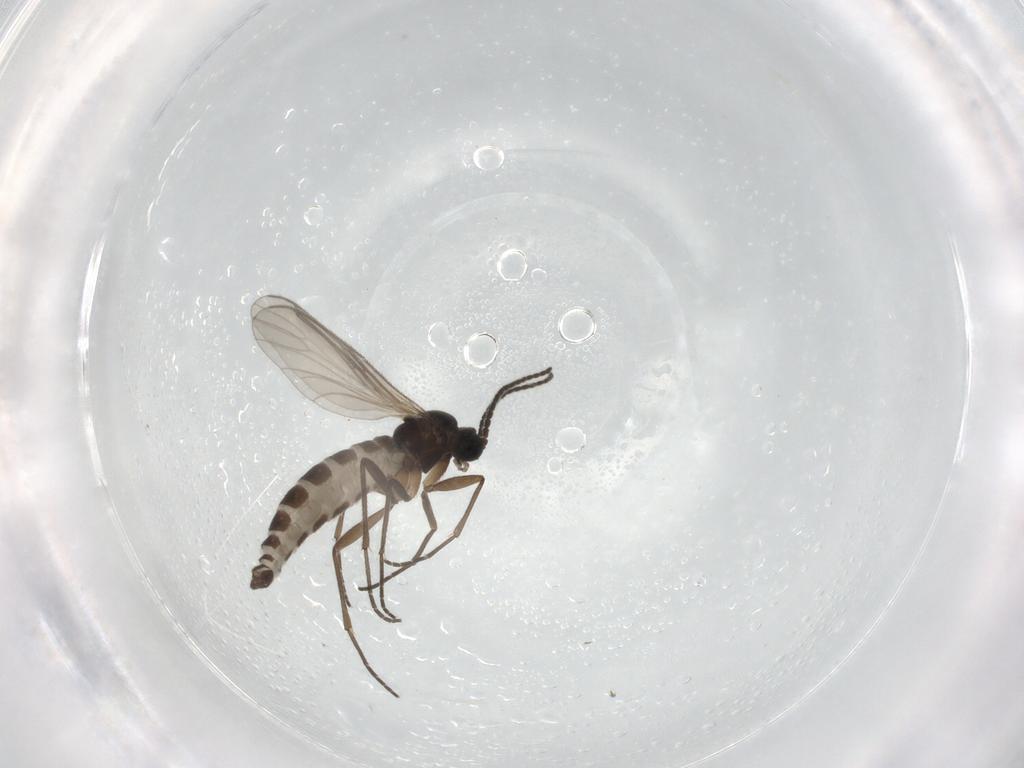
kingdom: Animalia
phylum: Arthropoda
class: Insecta
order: Diptera
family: Sciaridae
